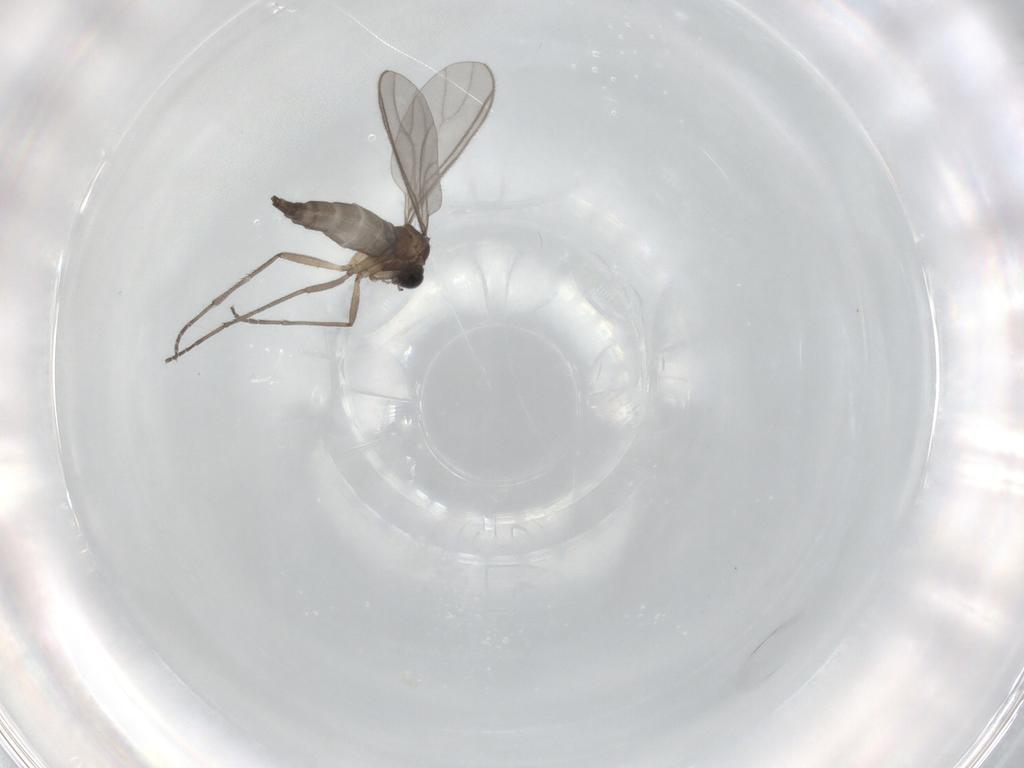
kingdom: Animalia
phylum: Arthropoda
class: Insecta
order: Diptera
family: Sciaridae
